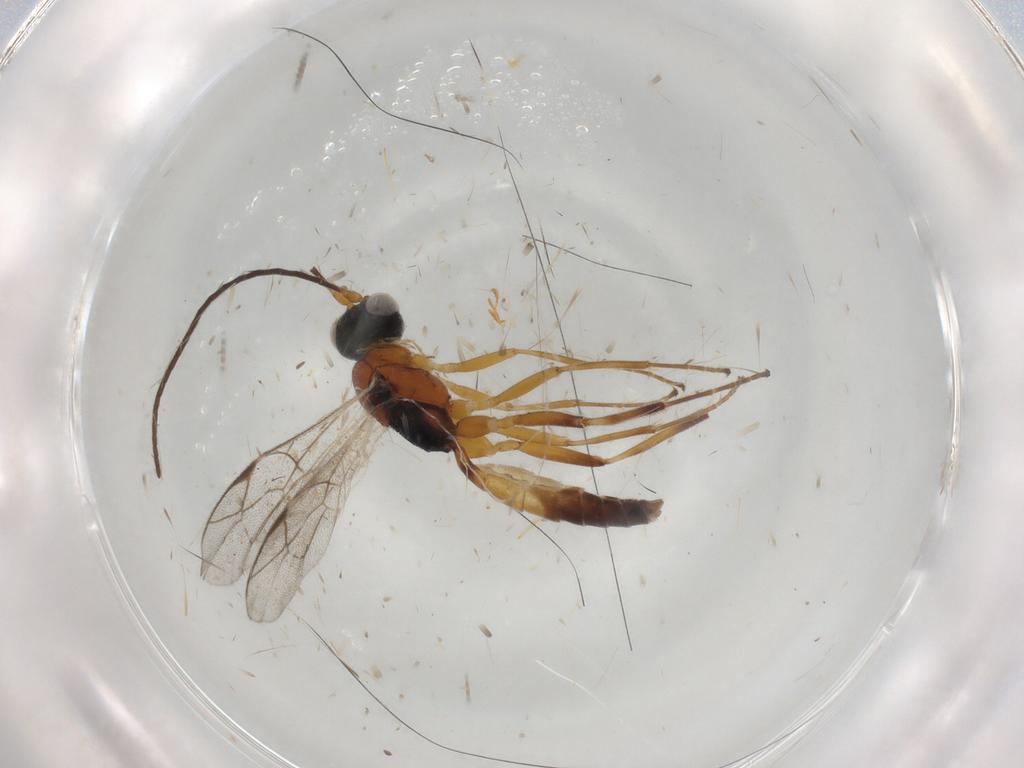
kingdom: Animalia
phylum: Arthropoda
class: Insecta
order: Hymenoptera
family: Ichneumonidae
